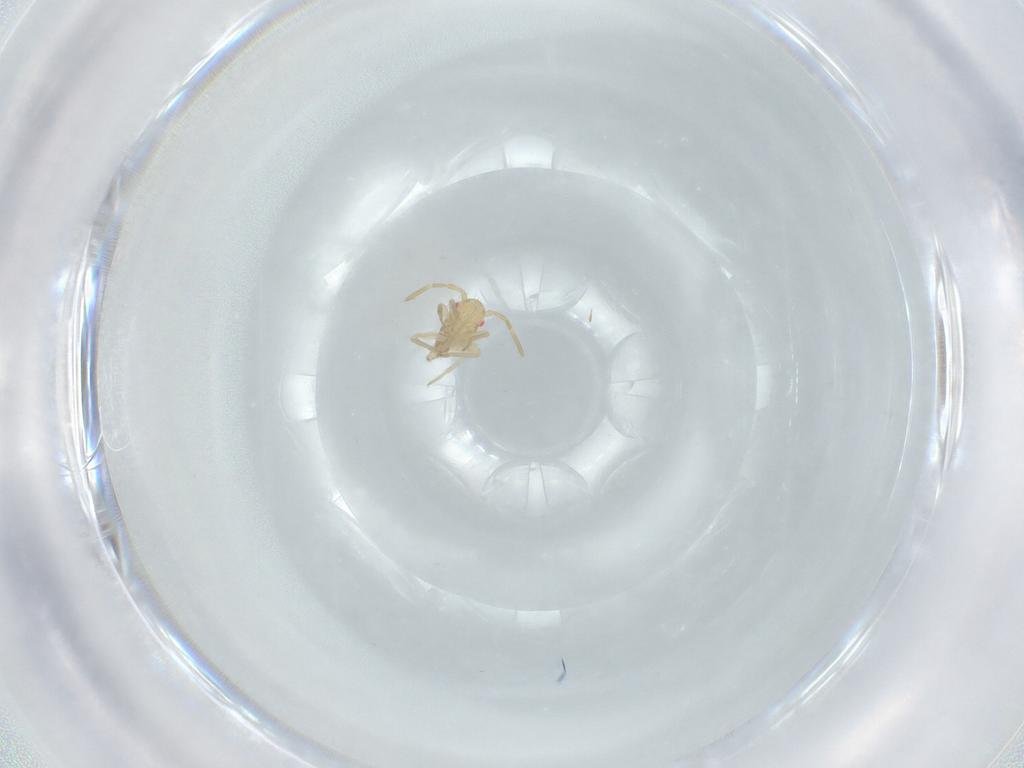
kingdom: Animalia
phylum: Arthropoda
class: Insecta
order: Hemiptera
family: Miridae
